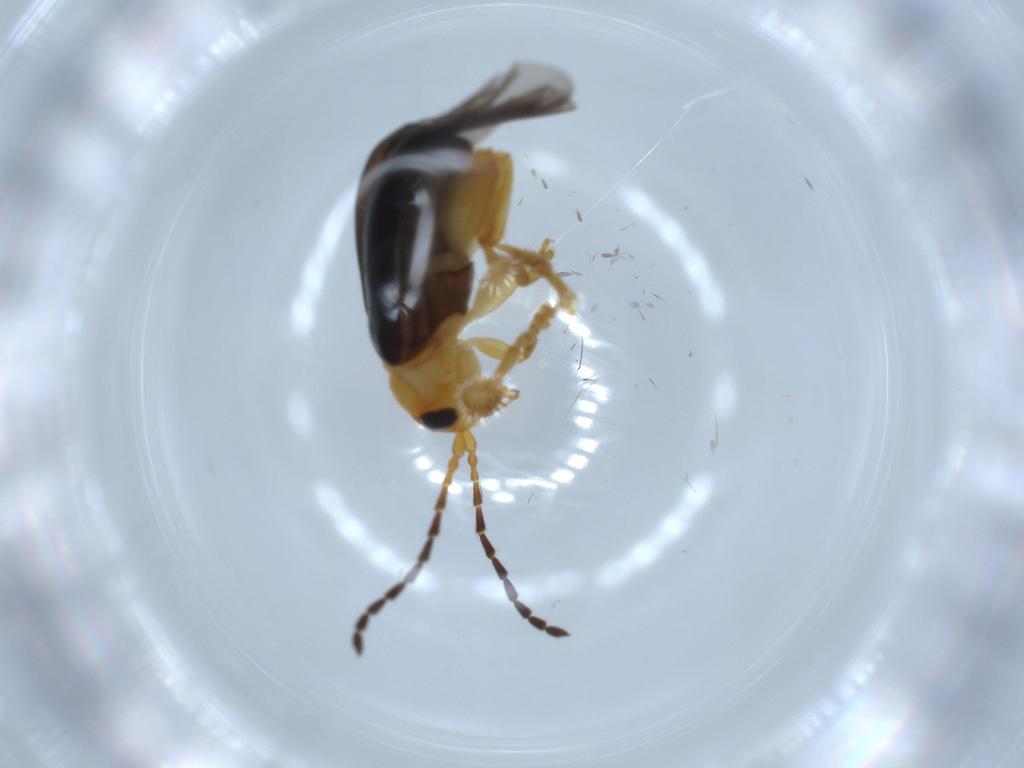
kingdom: Animalia
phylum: Arthropoda
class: Insecta
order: Coleoptera
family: Chrysomelidae
